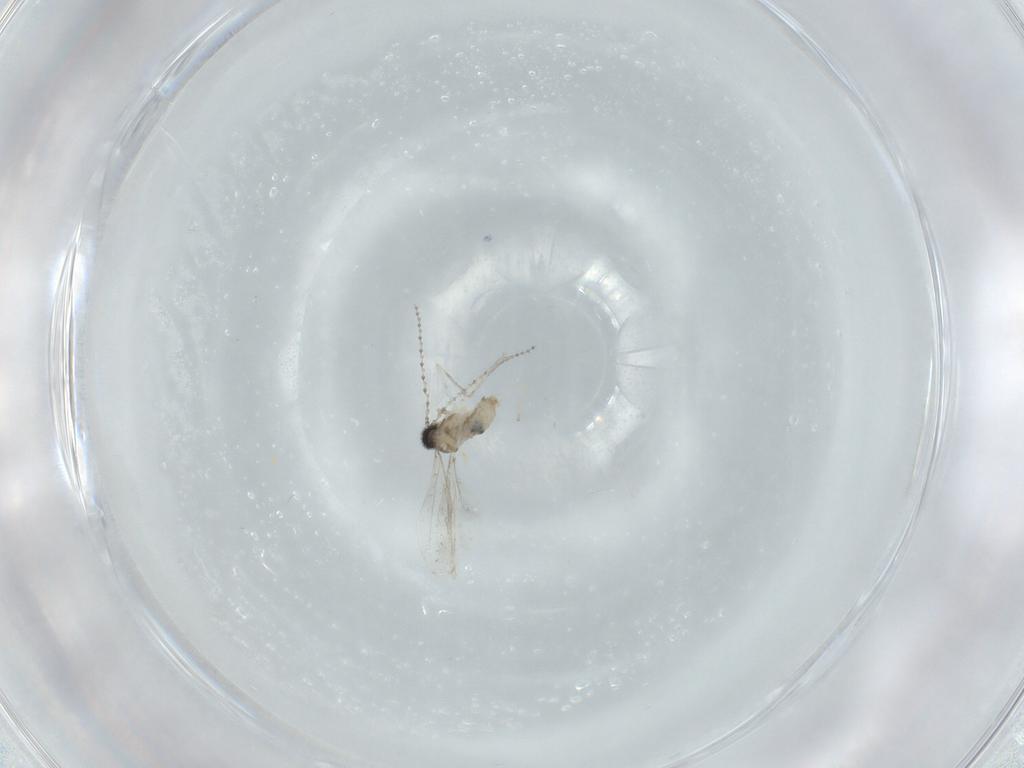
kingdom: Animalia
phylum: Arthropoda
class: Insecta
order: Diptera
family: Cecidomyiidae
